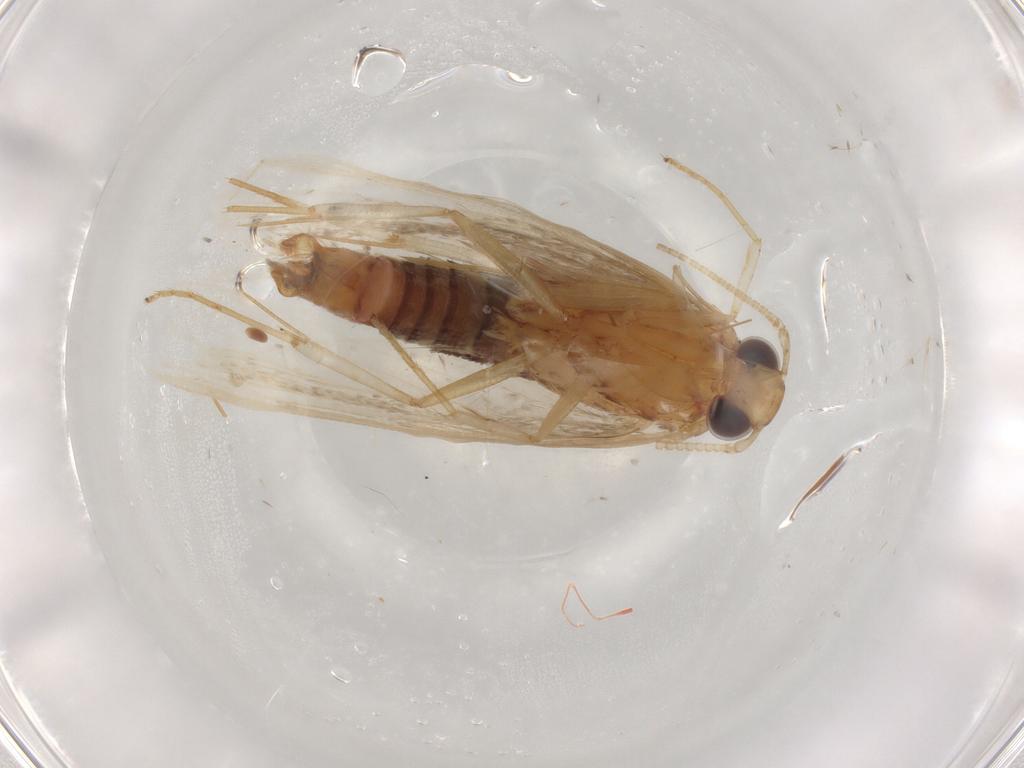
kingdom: Animalia
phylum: Arthropoda
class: Insecta
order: Lepidoptera
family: Lecithoceridae
